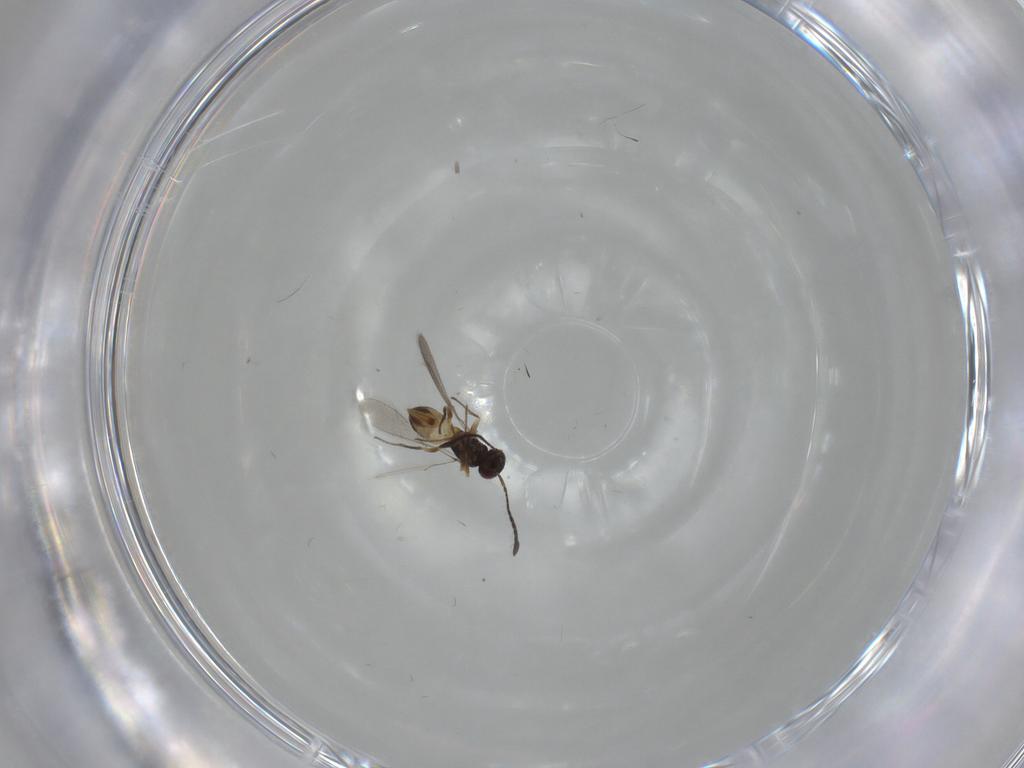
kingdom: Animalia
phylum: Arthropoda
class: Insecta
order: Hymenoptera
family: Mymaridae
